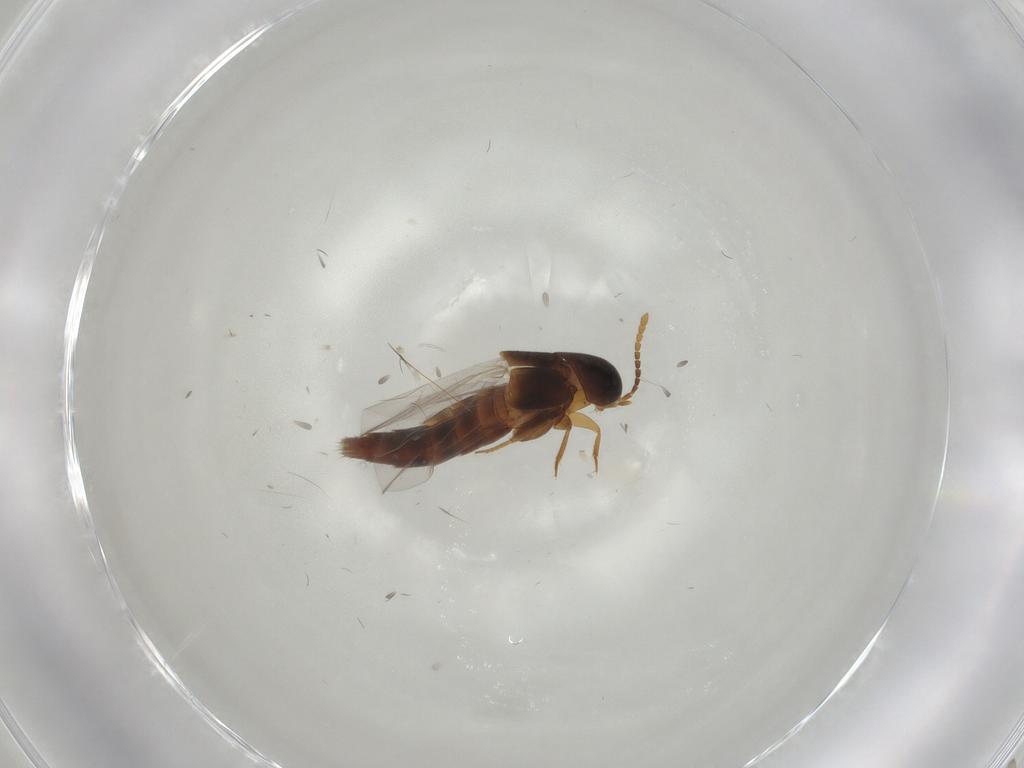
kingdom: Animalia
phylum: Arthropoda
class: Insecta
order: Coleoptera
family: Staphylinidae
